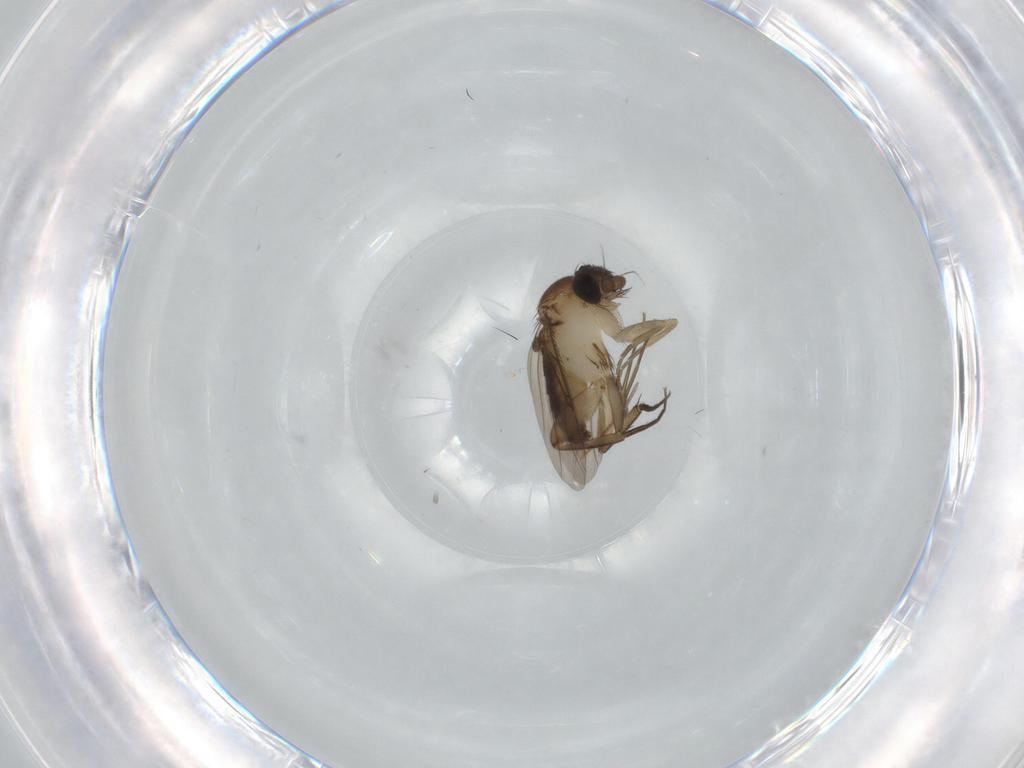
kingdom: Animalia
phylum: Arthropoda
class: Insecta
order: Diptera
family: Phoridae
